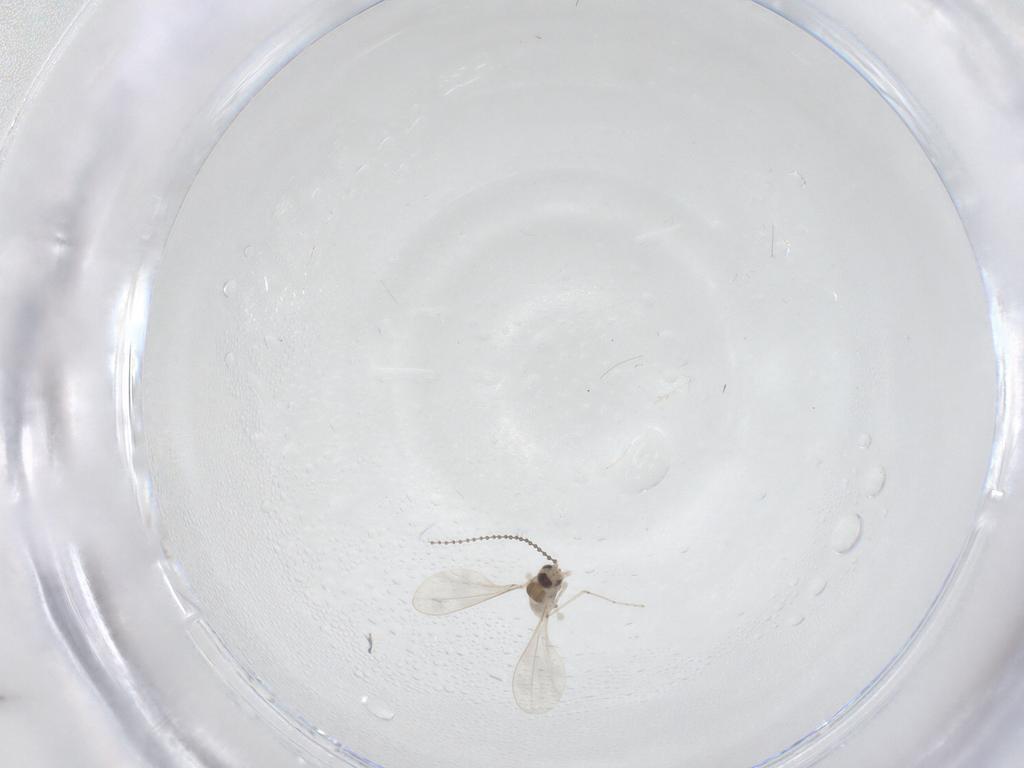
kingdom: Animalia
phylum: Arthropoda
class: Insecta
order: Diptera
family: Cecidomyiidae
